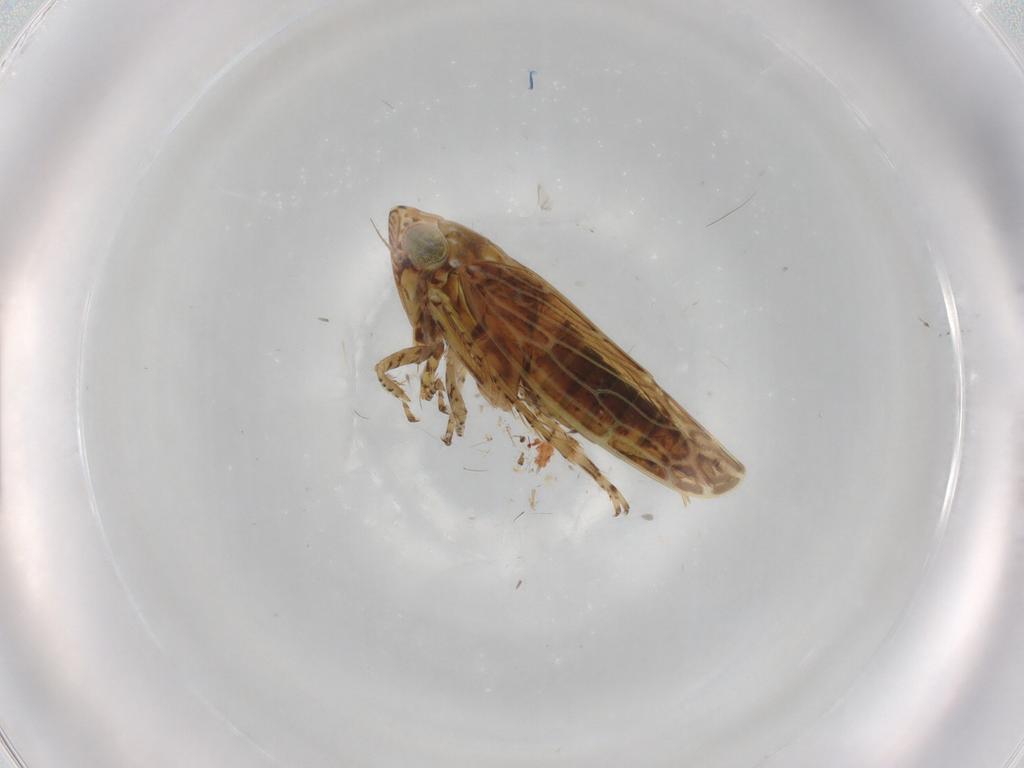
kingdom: Animalia
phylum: Arthropoda
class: Insecta
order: Hemiptera
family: Cicadellidae
